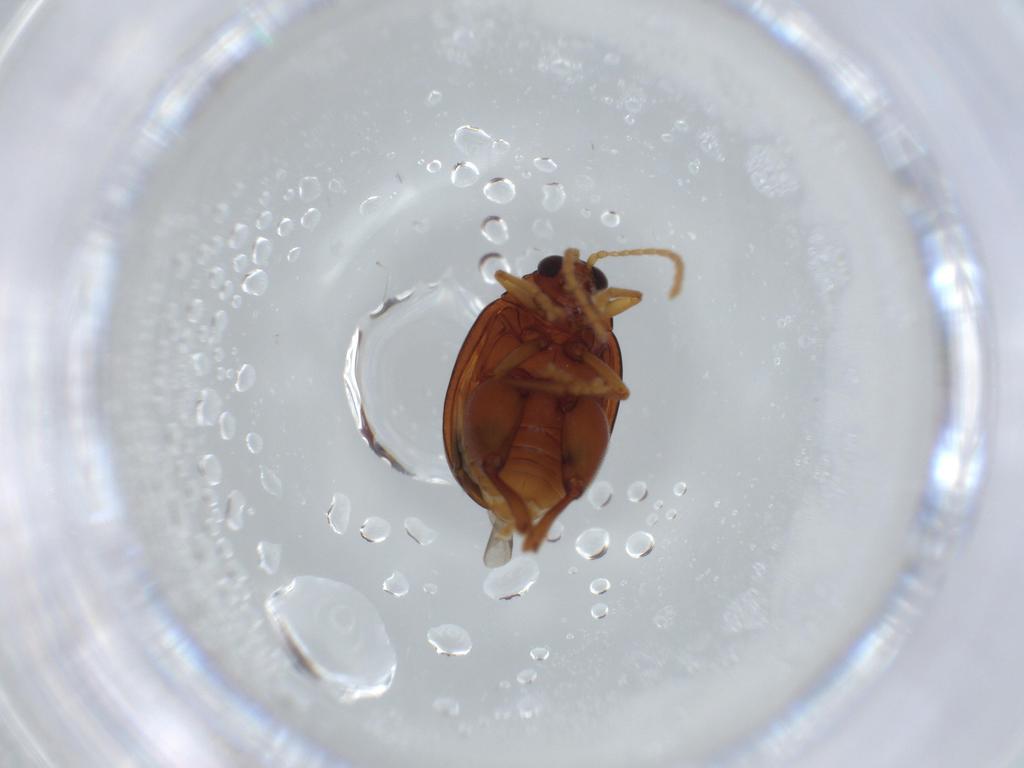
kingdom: Animalia
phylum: Arthropoda
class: Insecta
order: Coleoptera
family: Chrysomelidae
